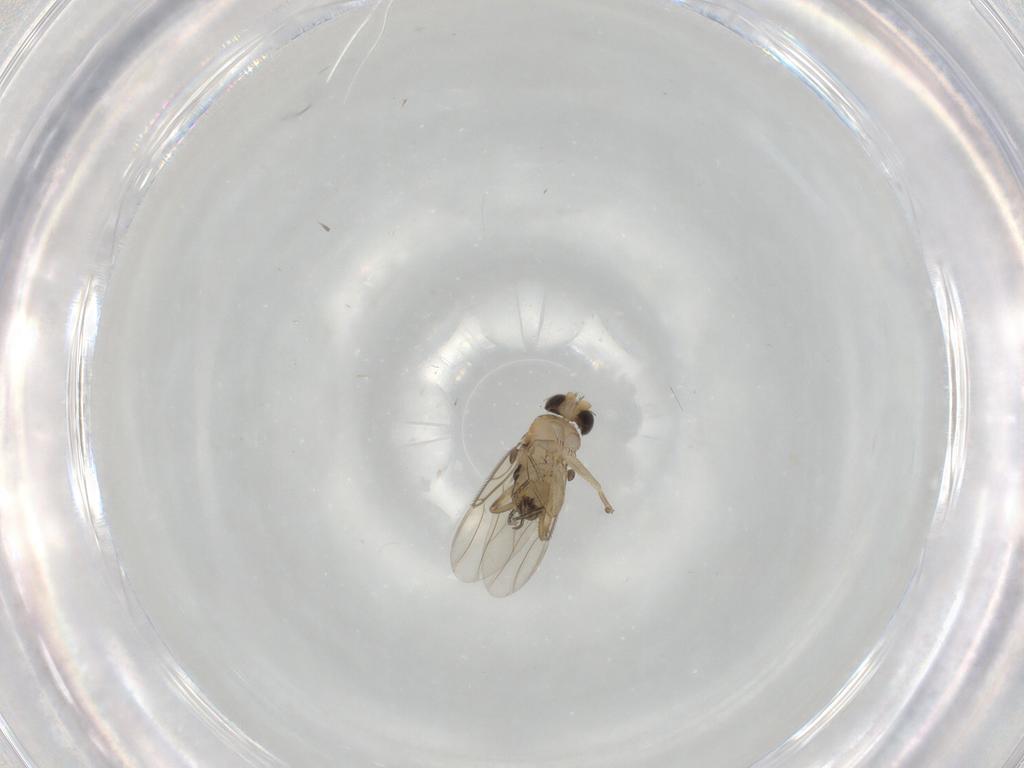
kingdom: Animalia
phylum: Arthropoda
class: Insecta
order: Diptera
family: Phoridae
